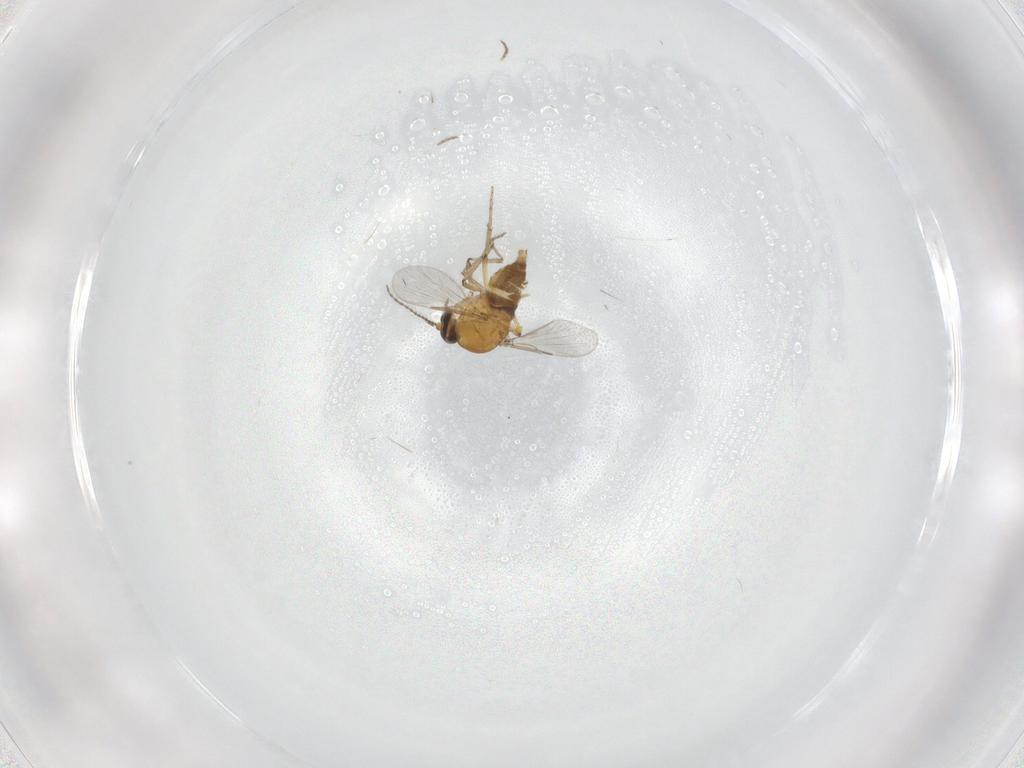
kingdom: Animalia
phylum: Arthropoda
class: Insecta
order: Diptera
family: Ceratopogonidae
